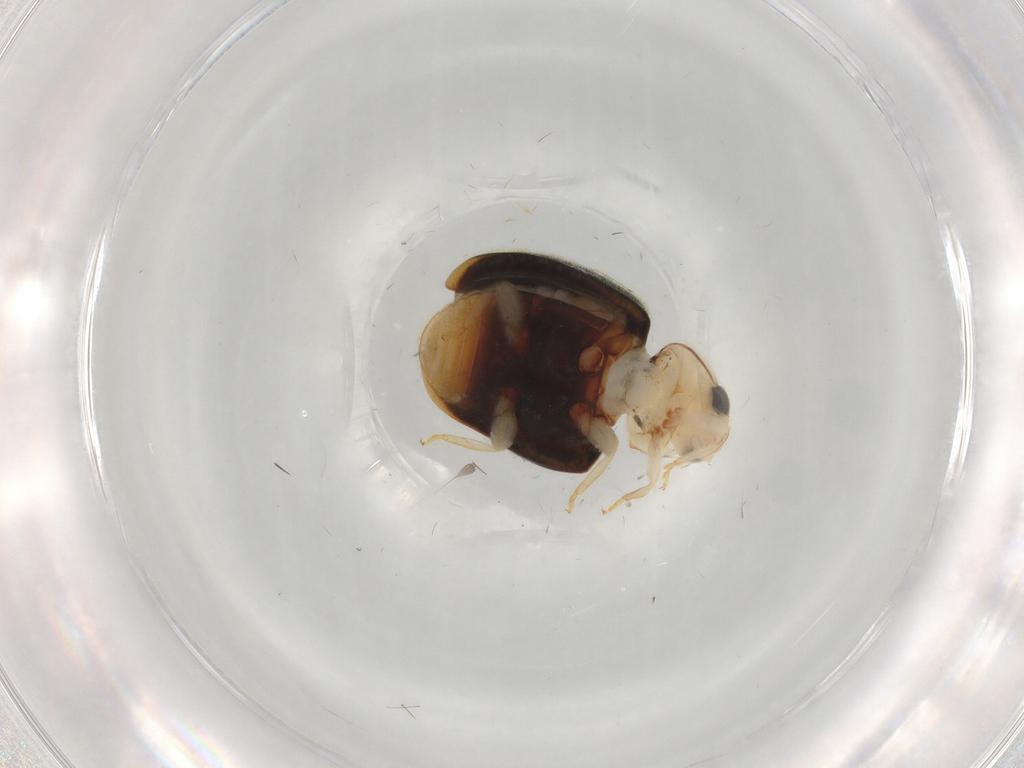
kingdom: Animalia
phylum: Arthropoda
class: Insecta
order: Coleoptera
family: Coccinellidae
